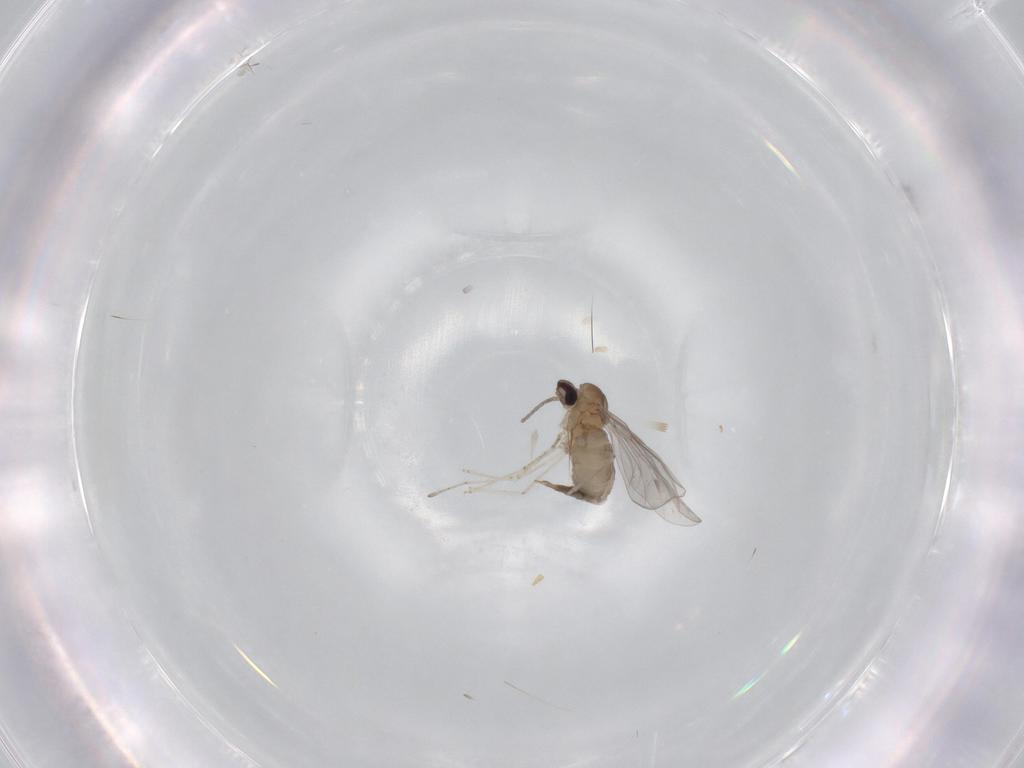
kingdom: Animalia
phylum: Arthropoda
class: Insecta
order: Diptera
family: Cecidomyiidae
